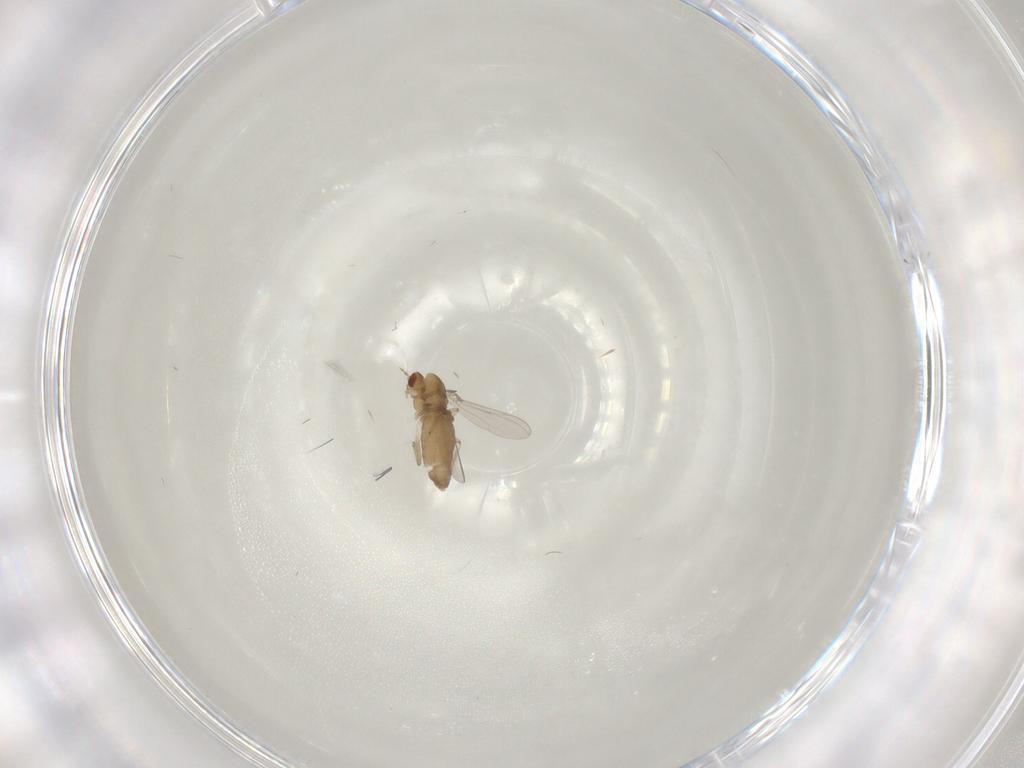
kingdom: Animalia
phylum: Arthropoda
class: Insecta
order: Diptera
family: Chironomidae
